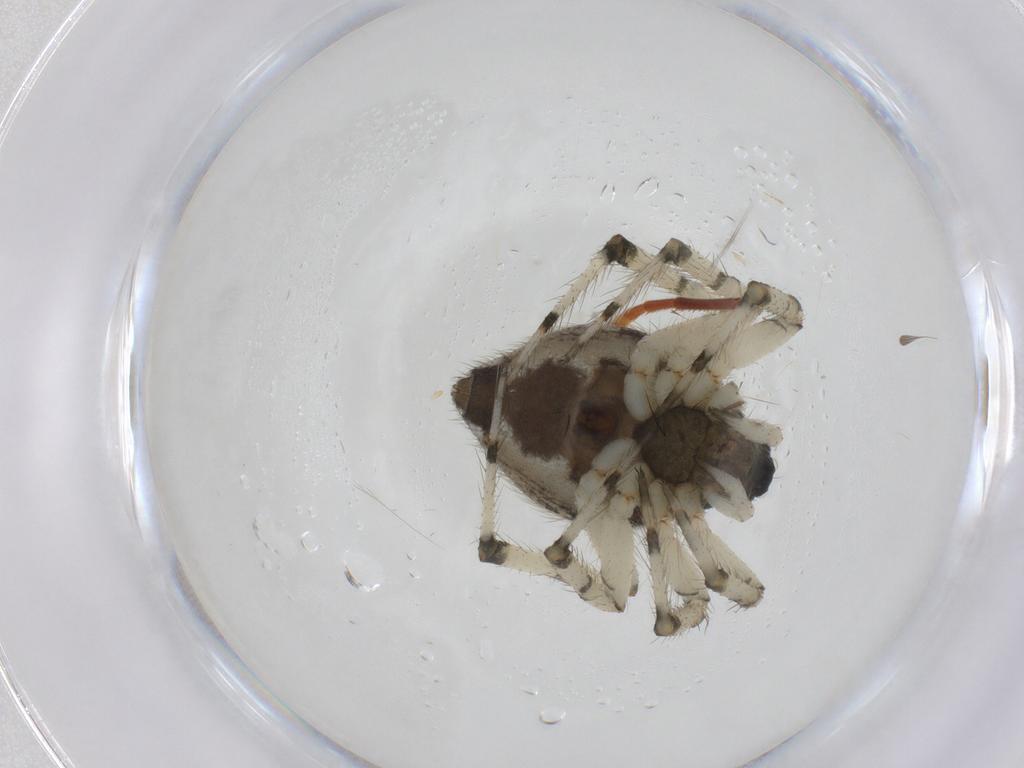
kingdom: Animalia
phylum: Arthropoda
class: Arachnida
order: Araneae
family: Theridiidae
